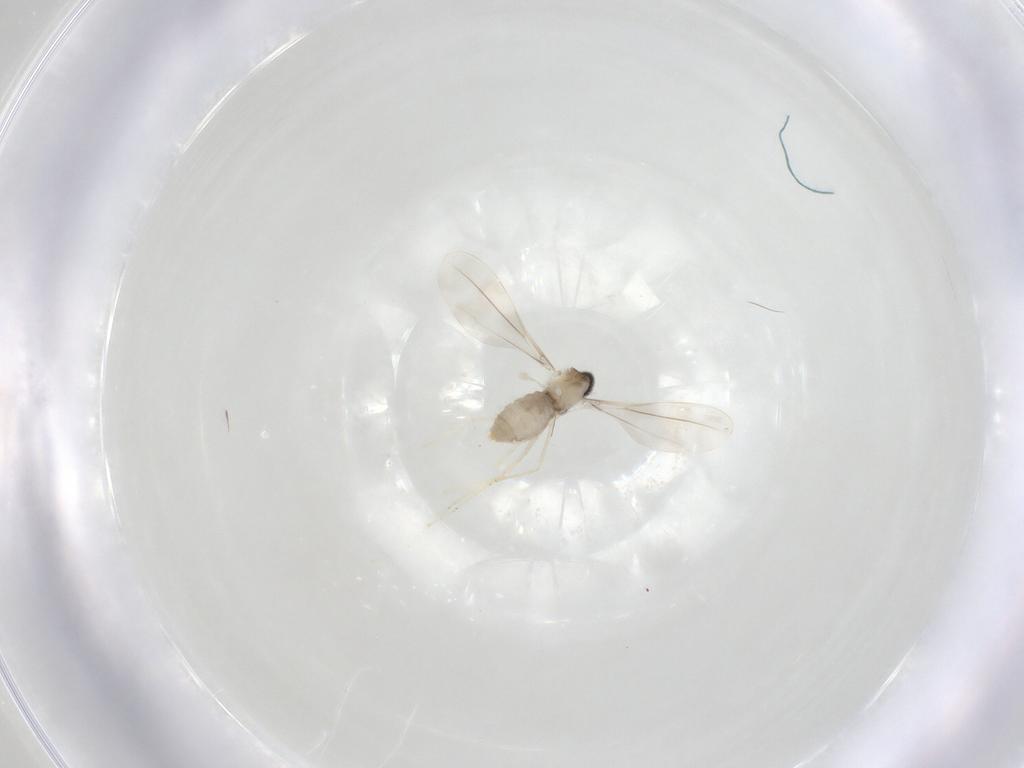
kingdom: Animalia
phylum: Arthropoda
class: Insecta
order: Diptera
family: Cecidomyiidae
